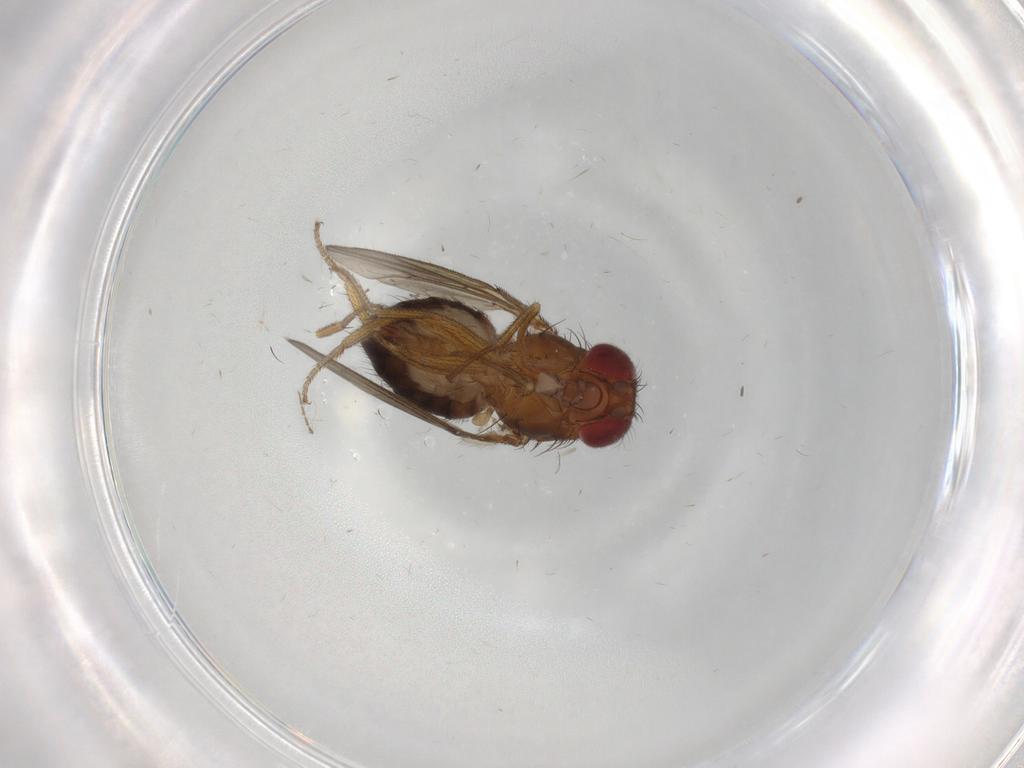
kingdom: Animalia
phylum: Arthropoda
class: Insecta
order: Diptera
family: Drosophilidae
